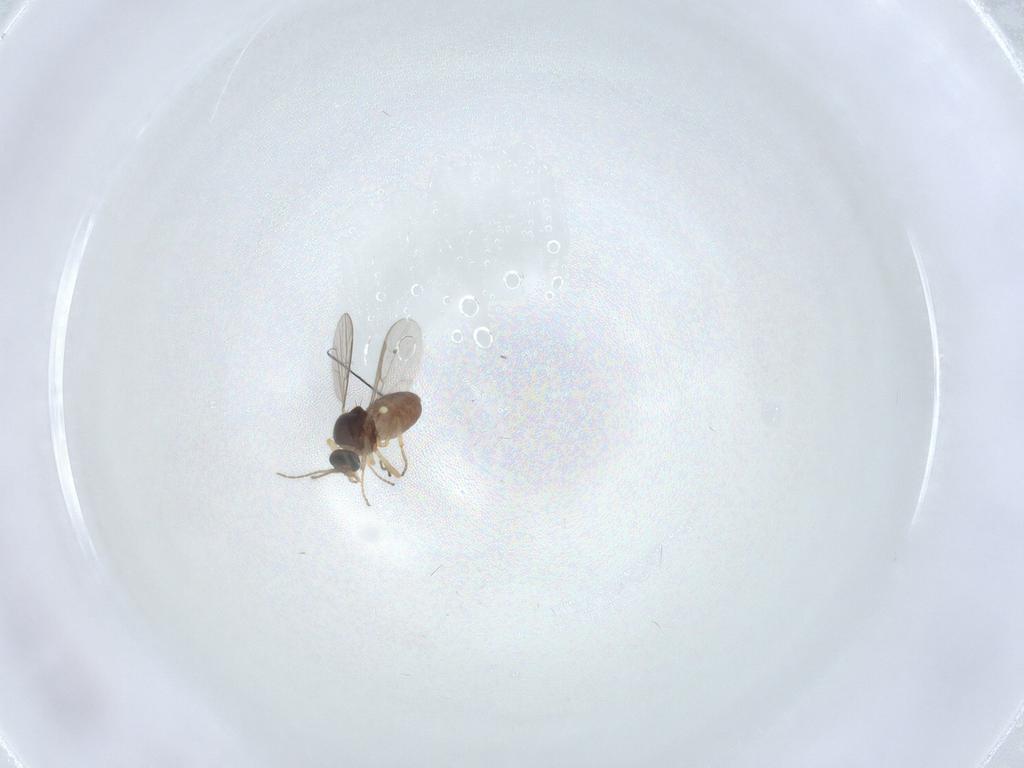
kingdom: Animalia
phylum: Arthropoda
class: Insecta
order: Diptera
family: Ceratopogonidae
